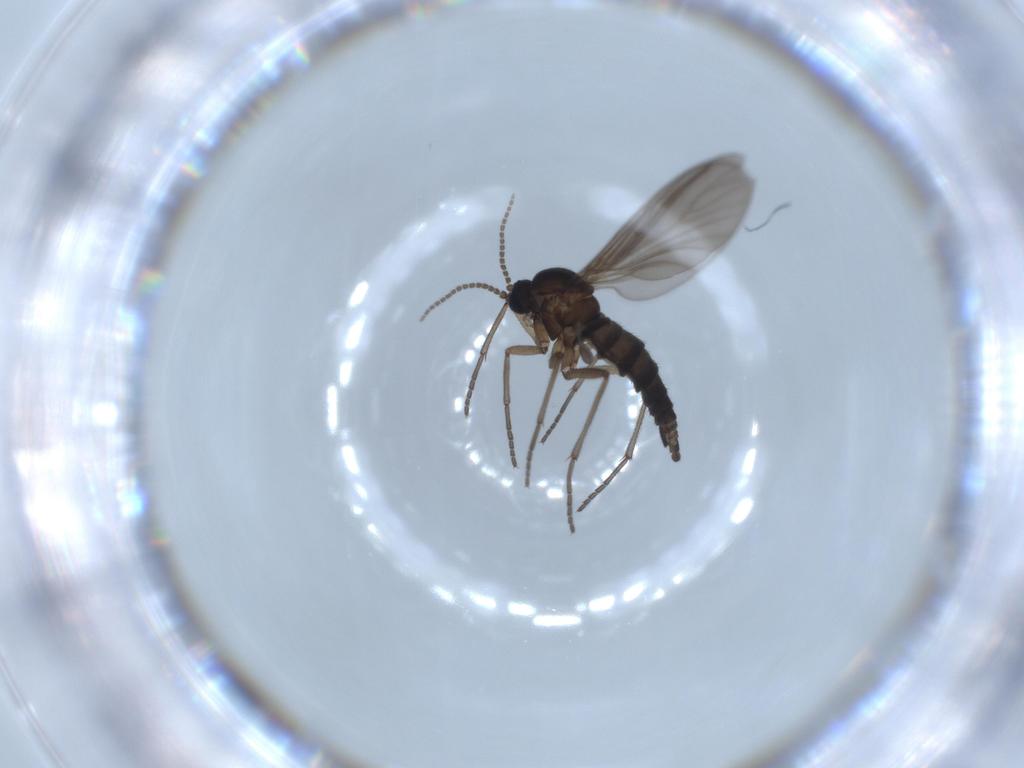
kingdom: Animalia
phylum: Arthropoda
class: Insecta
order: Diptera
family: Sciaridae
